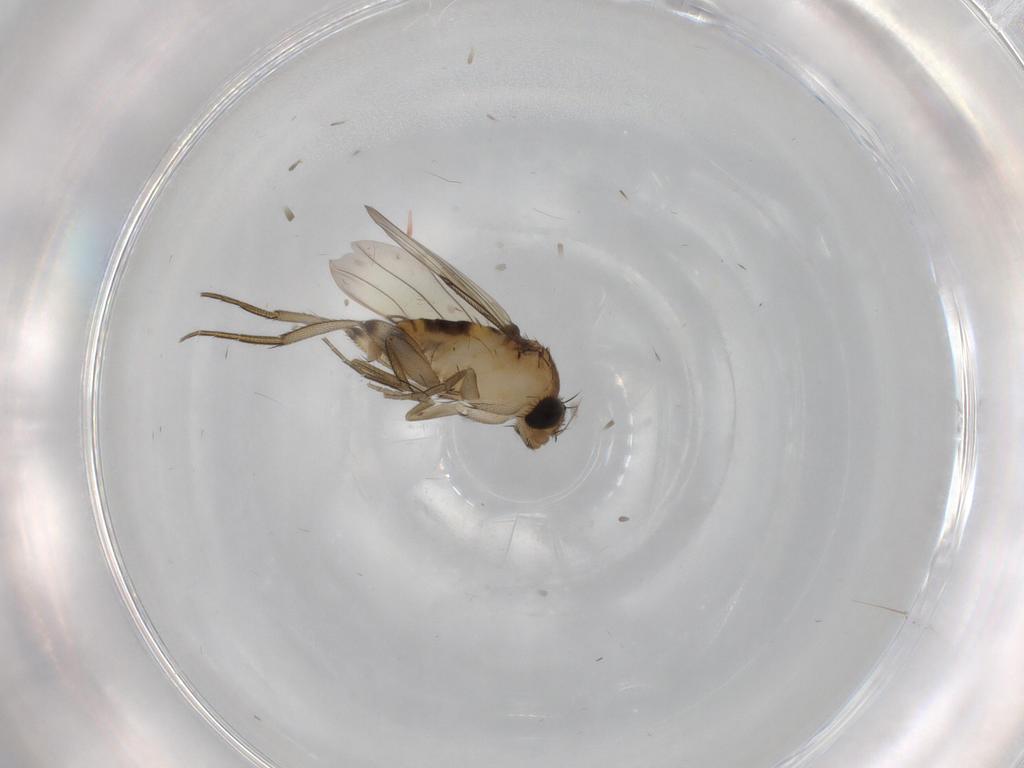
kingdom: Animalia
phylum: Arthropoda
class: Insecta
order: Diptera
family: Phoridae
